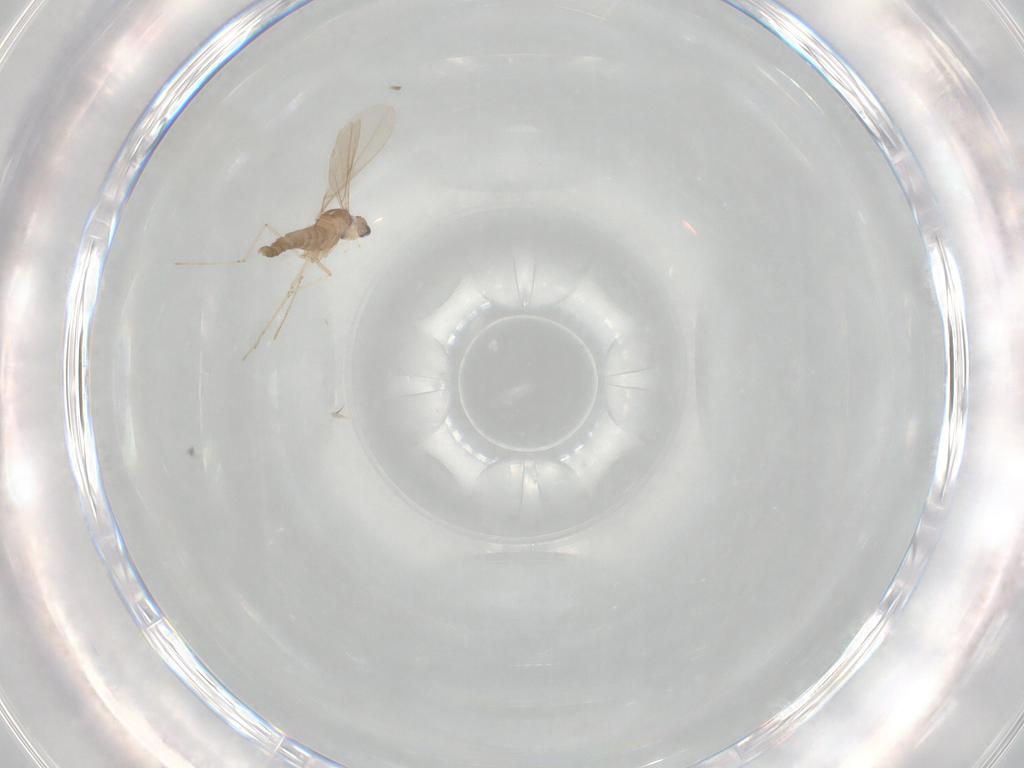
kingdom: Animalia
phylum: Arthropoda
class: Insecta
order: Diptera
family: Cecidomyiidae
